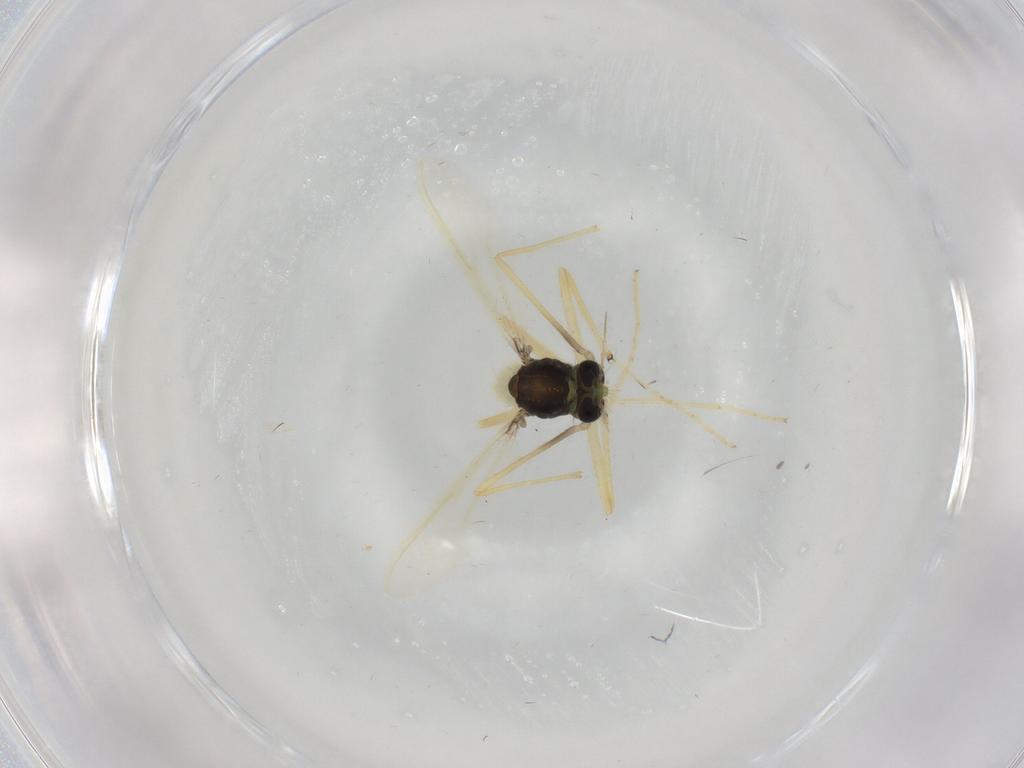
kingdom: Animalia
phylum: Arthropoda
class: Insecta
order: Diptera
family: Chironomidae
